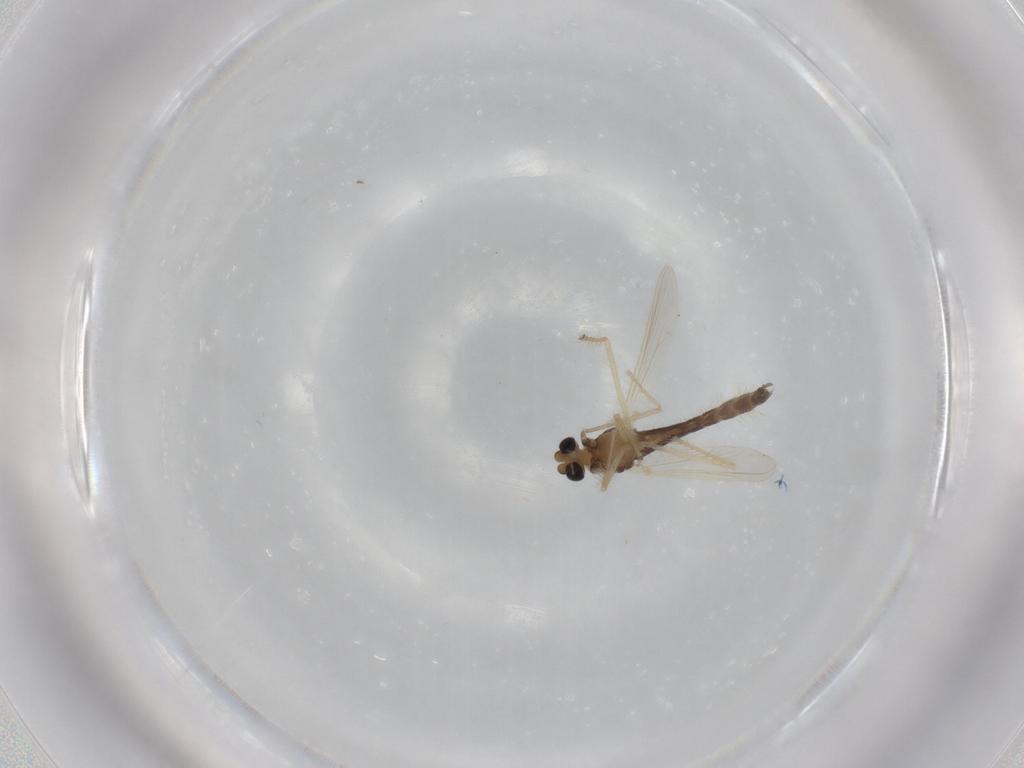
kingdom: Animalia
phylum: Arthropoda
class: Insecta
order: Diptera
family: Chironomidae
